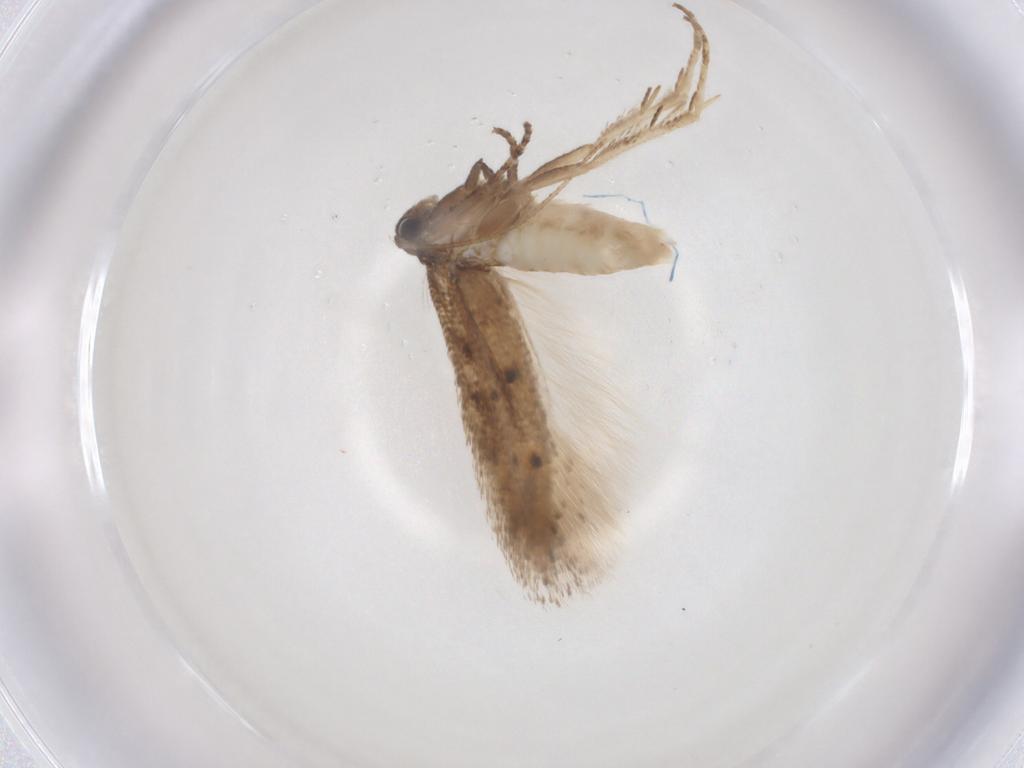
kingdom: Animalia
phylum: Arthropoda
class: Insecta
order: Lepidoptera
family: Gelechiidae
